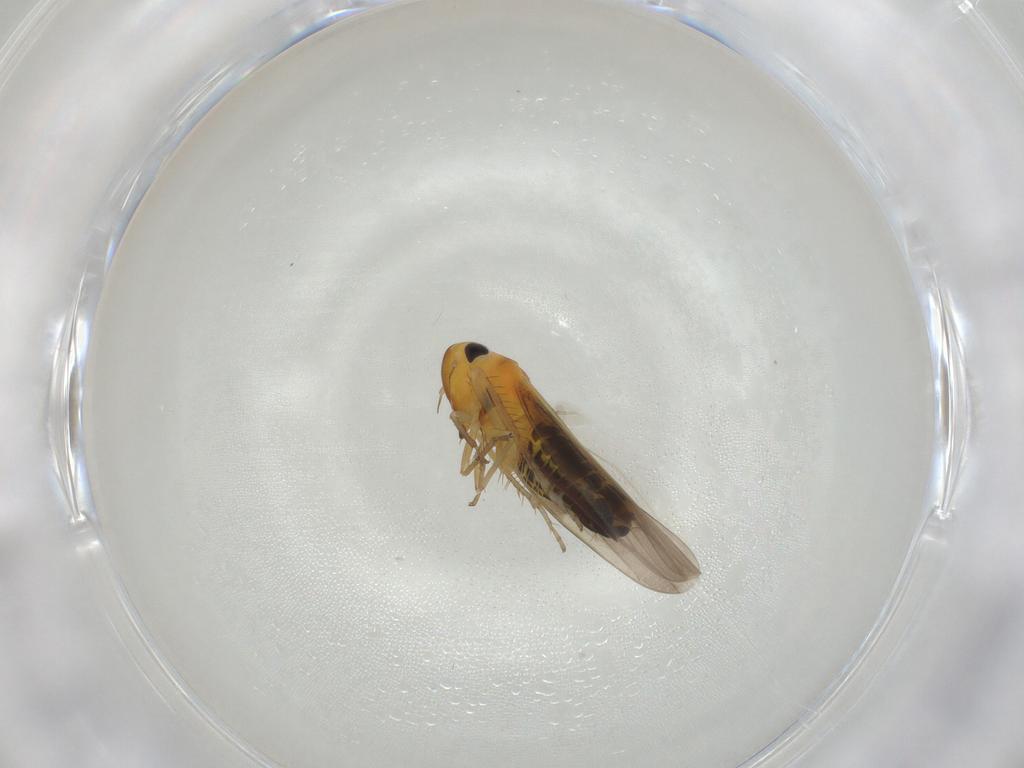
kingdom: Animalia
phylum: Arthropoda
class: Insecta
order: Hemiptera
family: Cicadellidae
